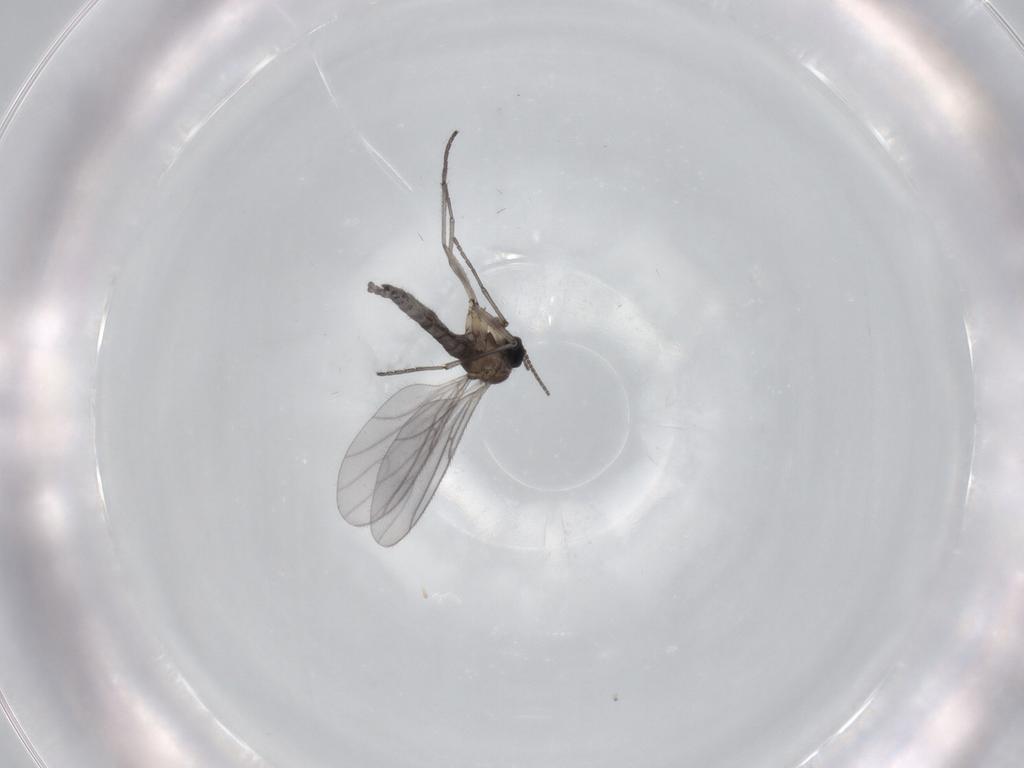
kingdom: Animalia
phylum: Arthropoda
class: Insecta
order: Diptera
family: Sciaridae
